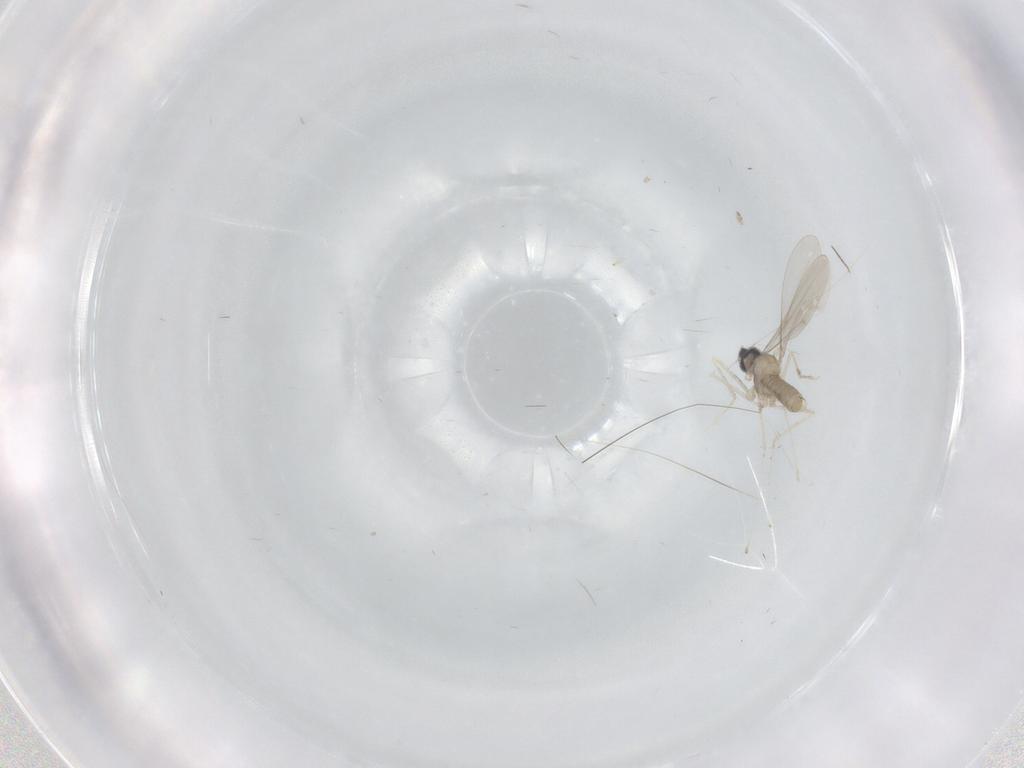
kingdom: Animalia
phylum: Arthropoda
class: Insecta
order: Diptera
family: Cecidomyiidae
